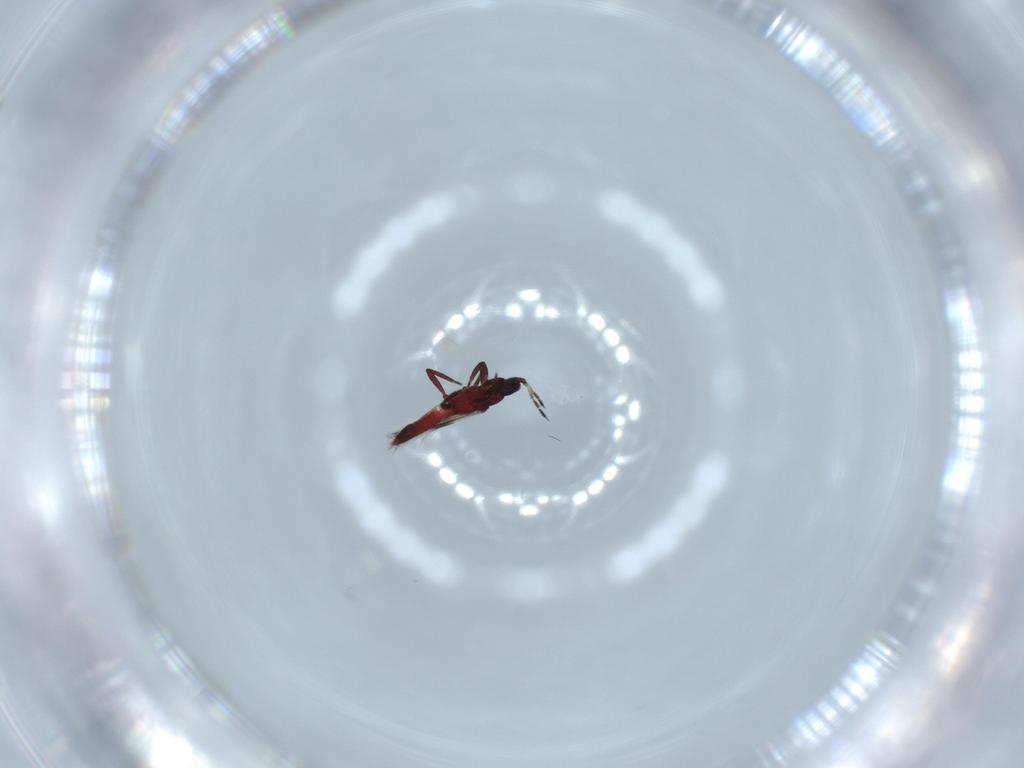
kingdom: Animalia
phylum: Arthropoda
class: Insecta
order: Thysanoptera
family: Aeolothripidae
